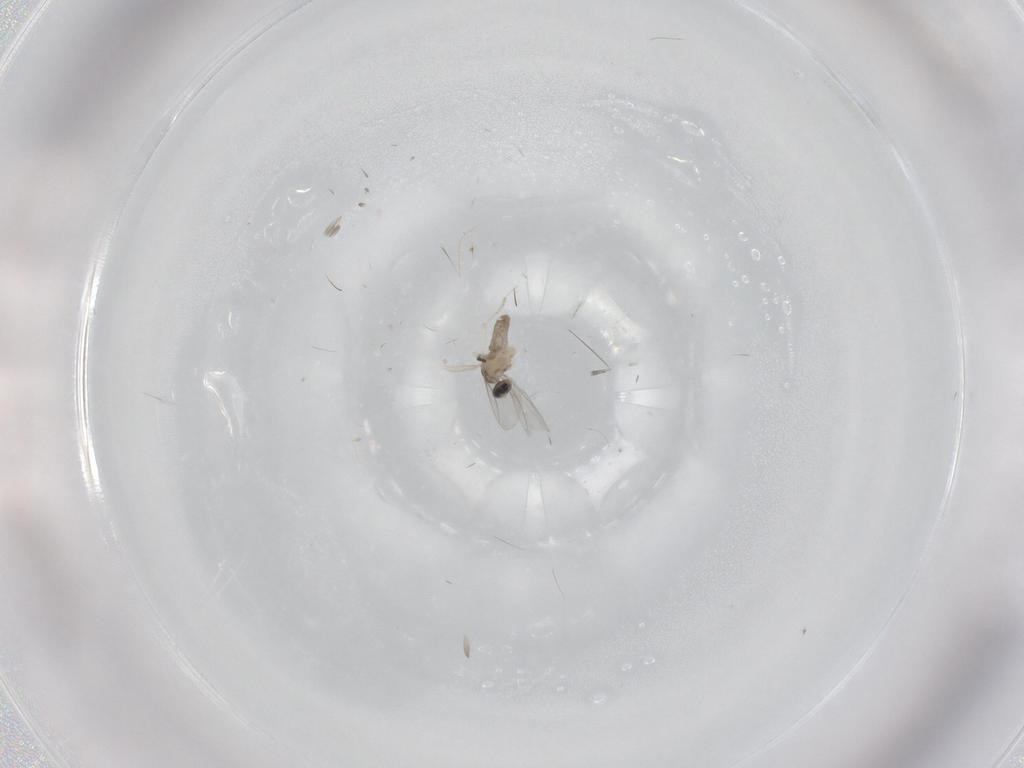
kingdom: Animalia
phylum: Arthropoda
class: Insecta
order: Diptera
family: Cecidomyiidae
